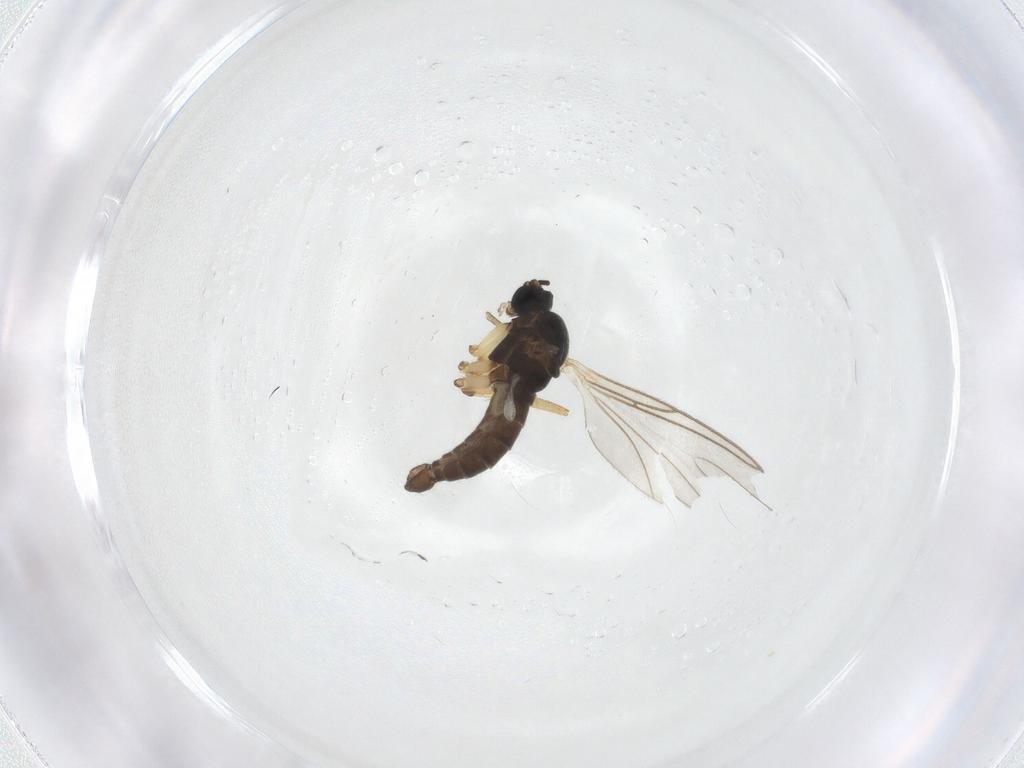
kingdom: Animalia
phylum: Arthropoda
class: Insecta
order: Diptera
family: Sciaridae
